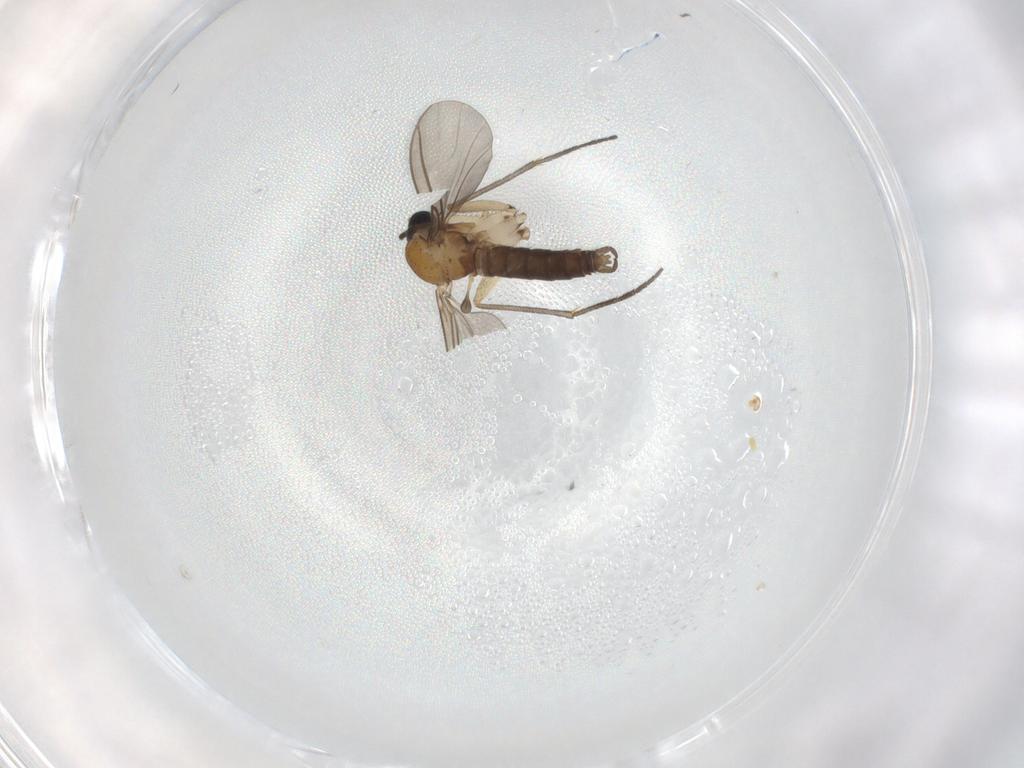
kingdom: Animalia
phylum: Arthropoda
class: Insecta
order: Diptera
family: Sciaridae
